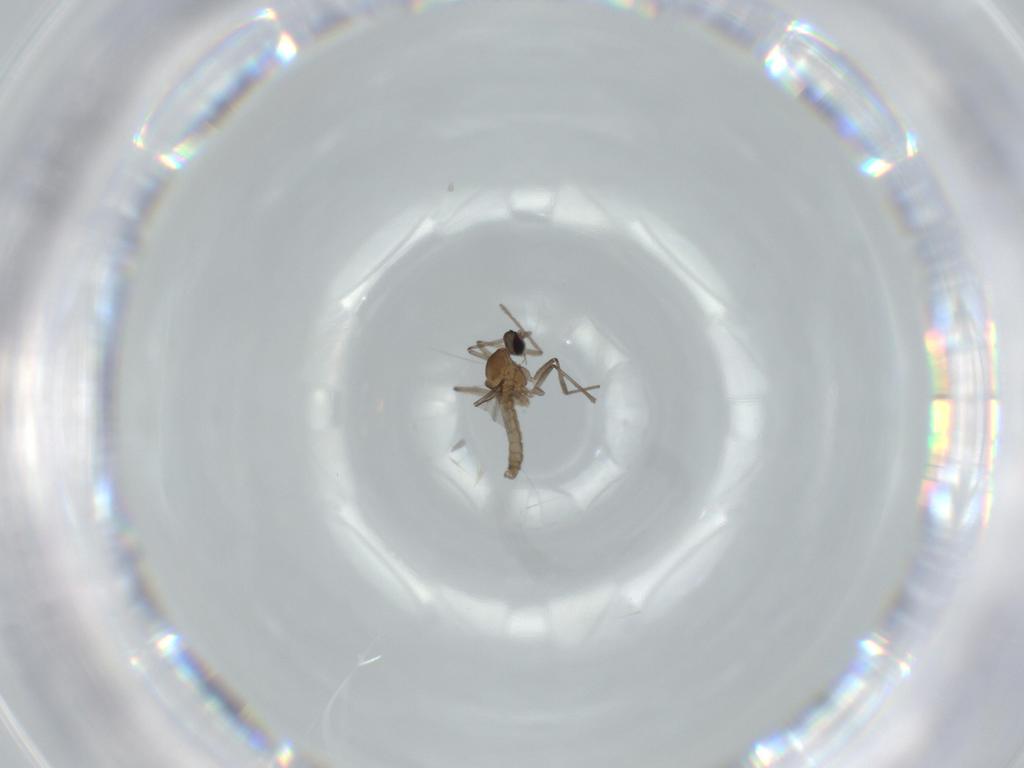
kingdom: Animalia
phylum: Arthropoda
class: Insecta
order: Diptera
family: Cecidomyiidae
